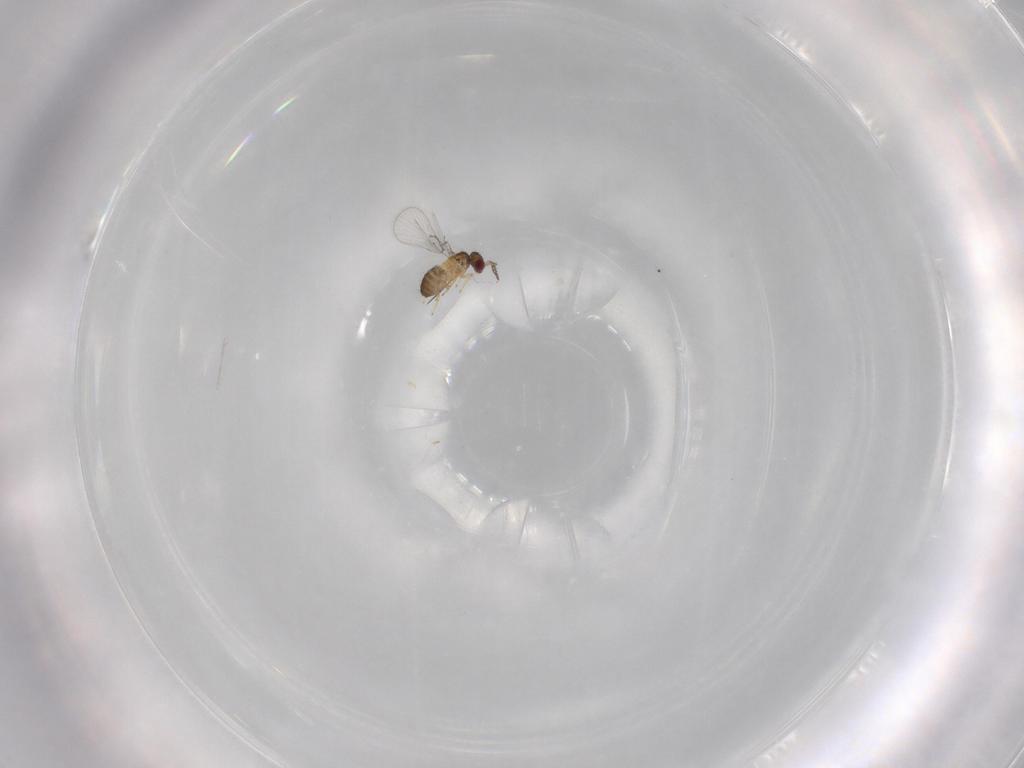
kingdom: Animalia
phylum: Arthropoda
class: Insecta
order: Hymenoptera
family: Trichogrammatidae
